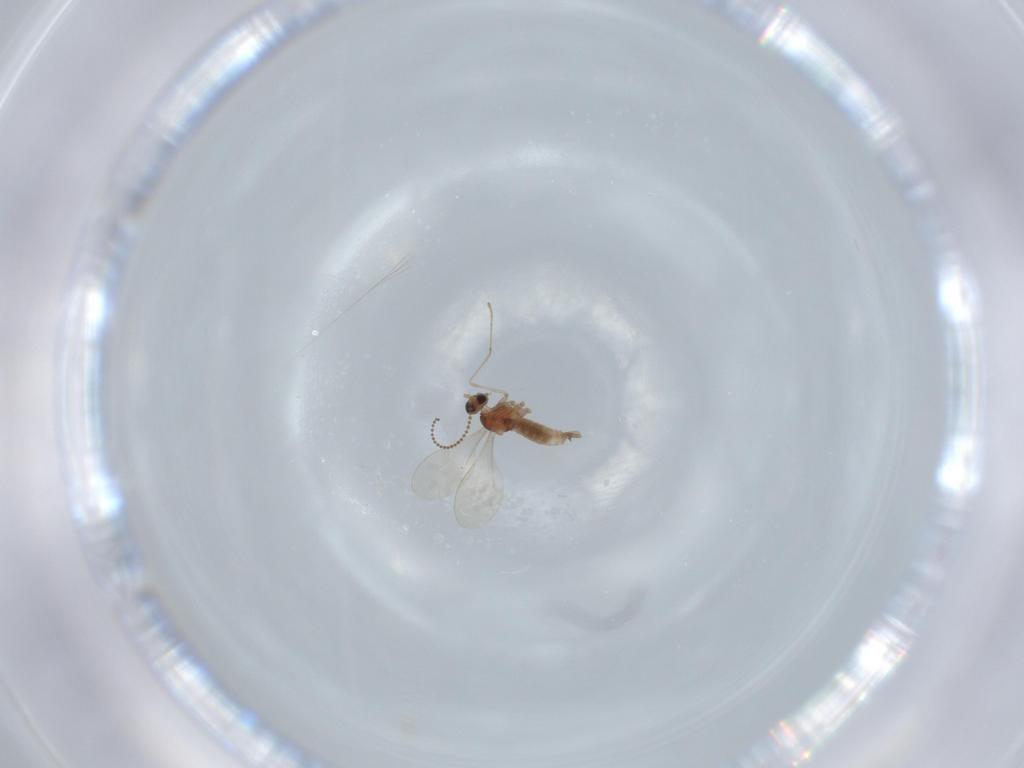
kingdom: Animalia
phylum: Arthropoda
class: Insecta
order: Diptera
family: Cecidomyiidae
